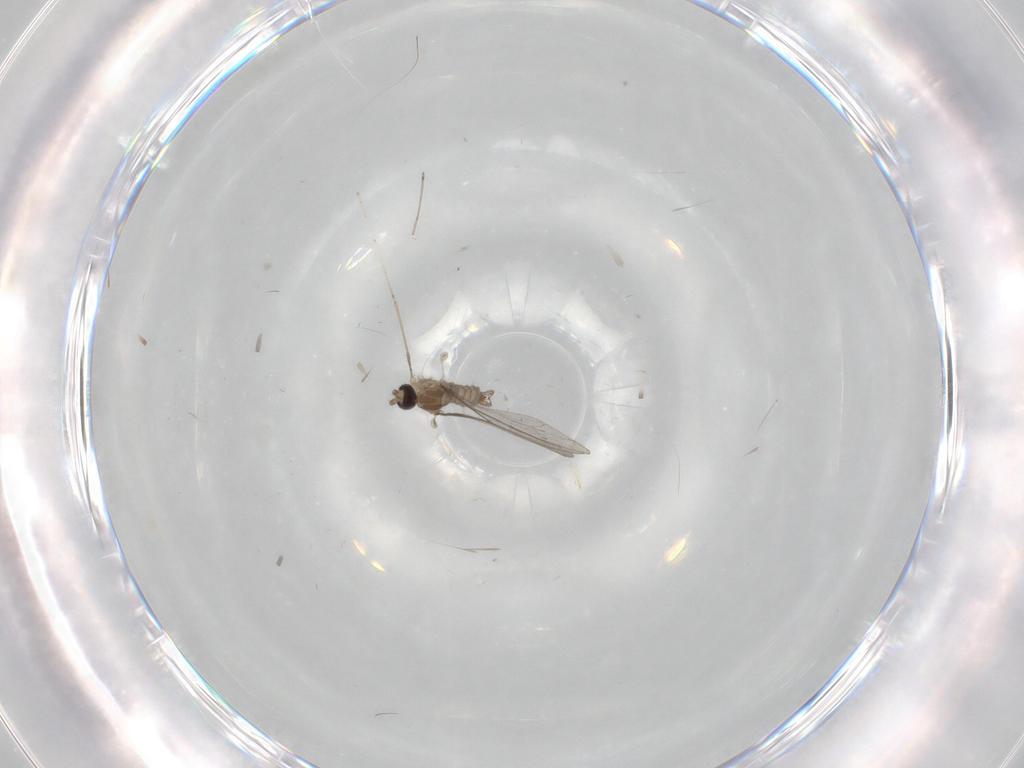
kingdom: Animalia
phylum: Arthropoda
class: Insecta
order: Diptera
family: Cecidomyiidae
